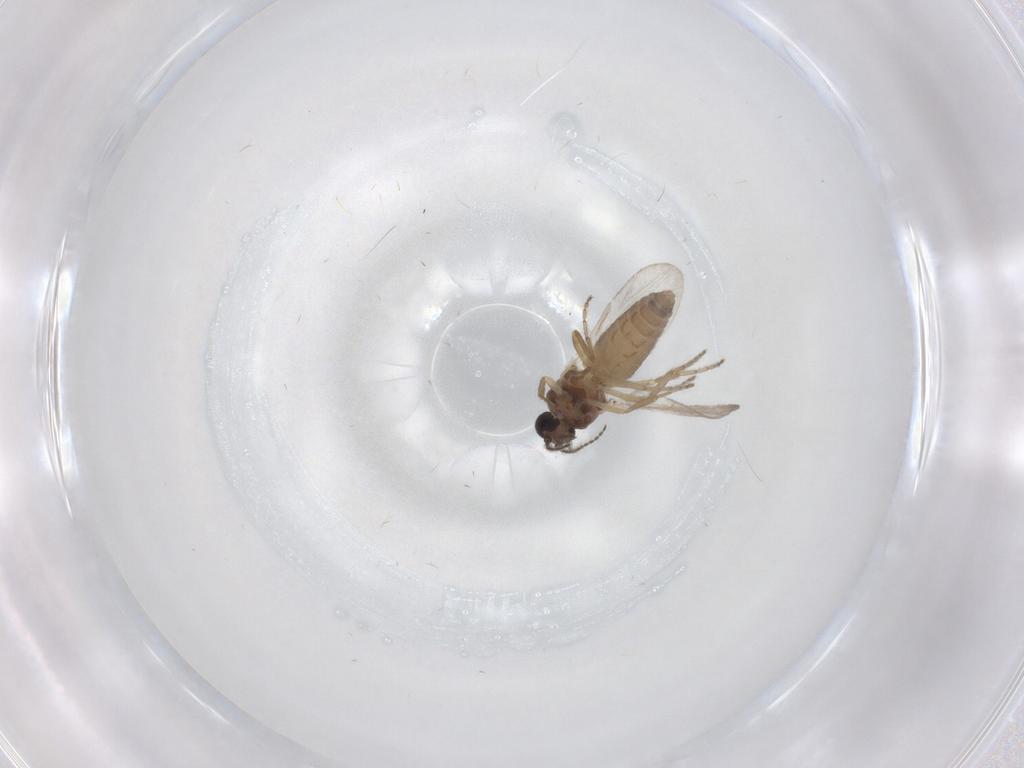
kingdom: Animalia
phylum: Arthropoda
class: Insecta
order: Diptera
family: Ceratopogonidae
